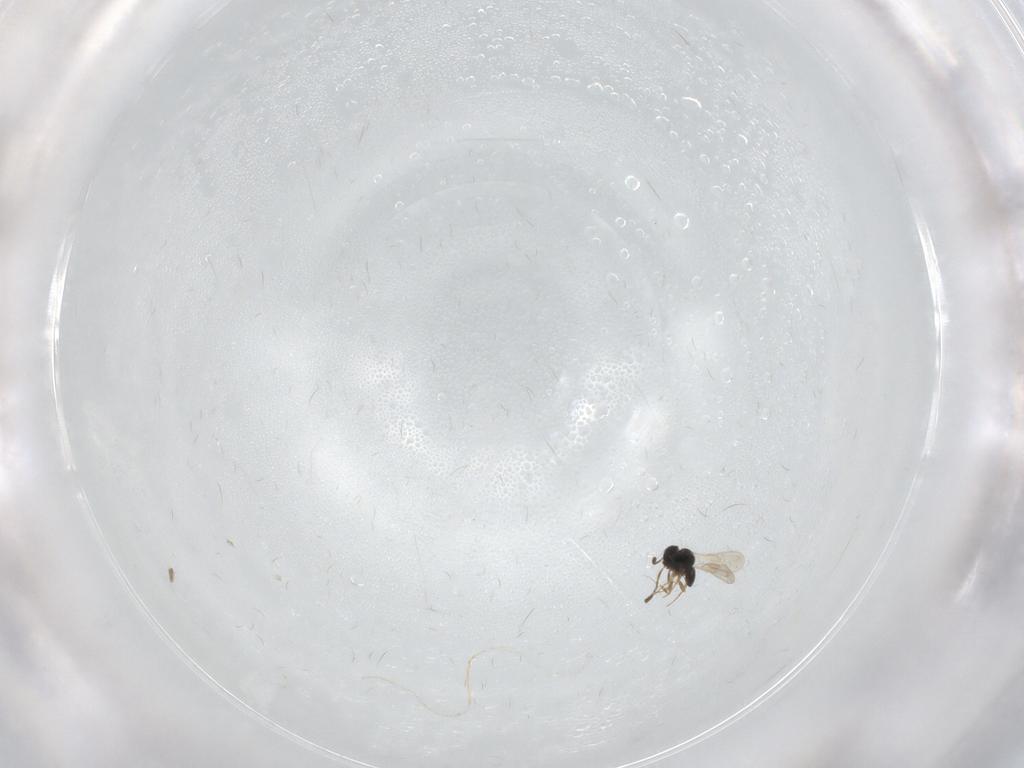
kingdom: Animalia
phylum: Arthropoda
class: Insecta
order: Hymenoptera
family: Scelionidae
